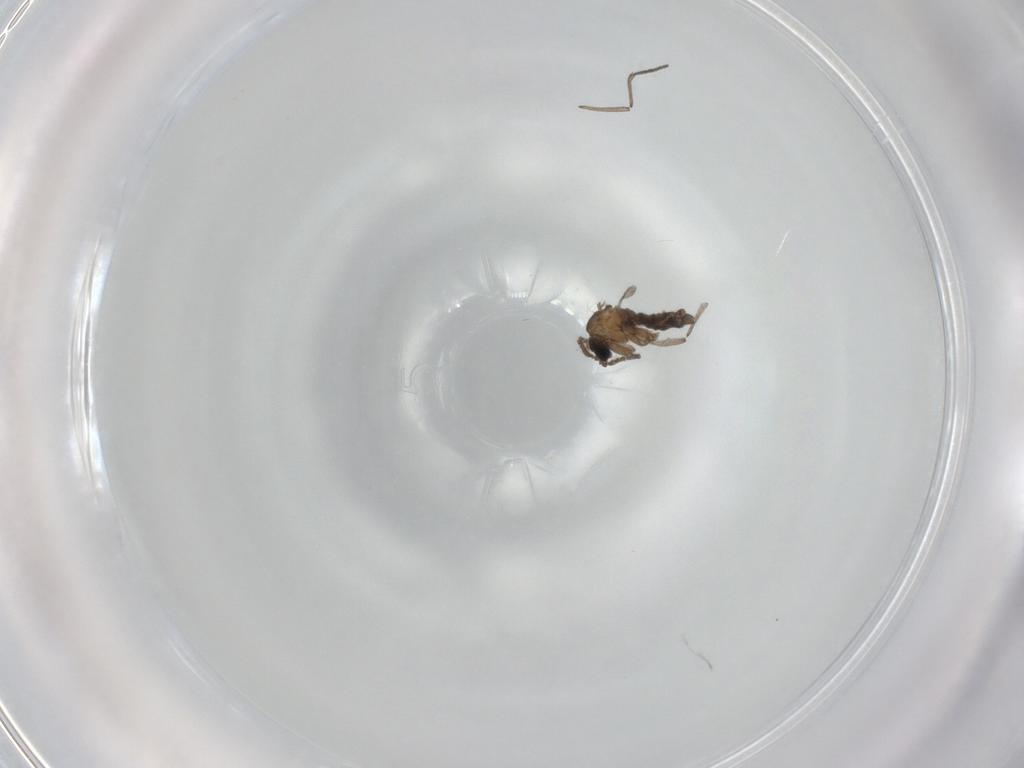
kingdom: Animalia
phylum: Arthropoda
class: Insecta
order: Diptera
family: Sciaridae
